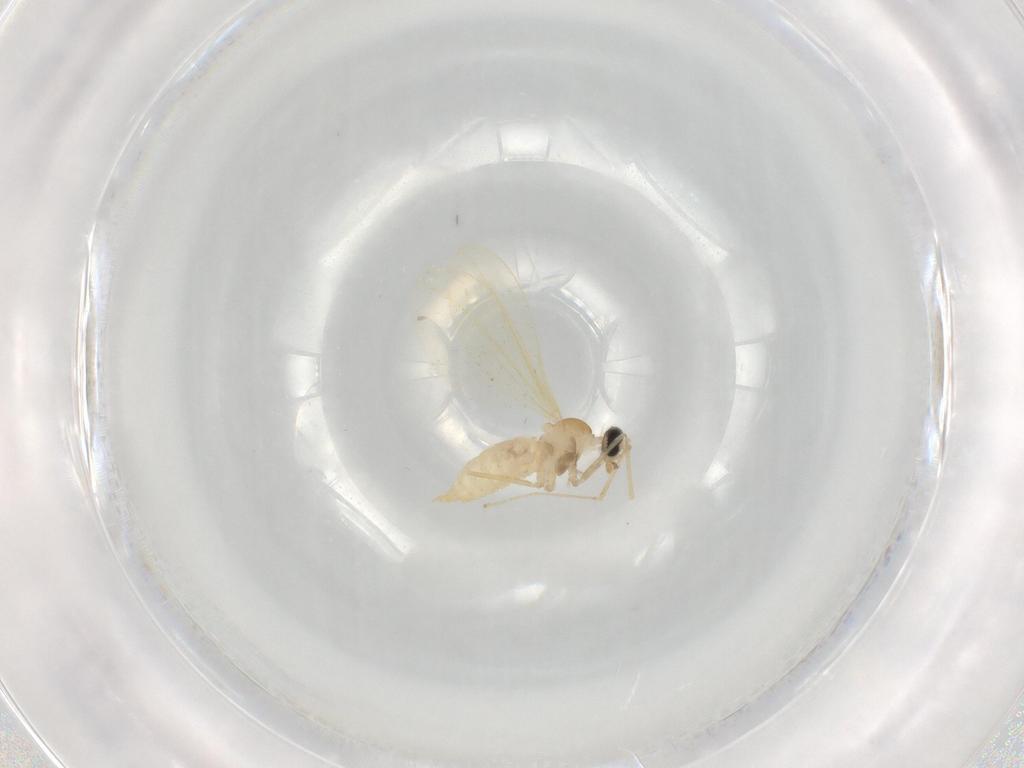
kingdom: Animalia
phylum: Arthropoda
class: Insecta
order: Diptera
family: Cecidomyiidae
